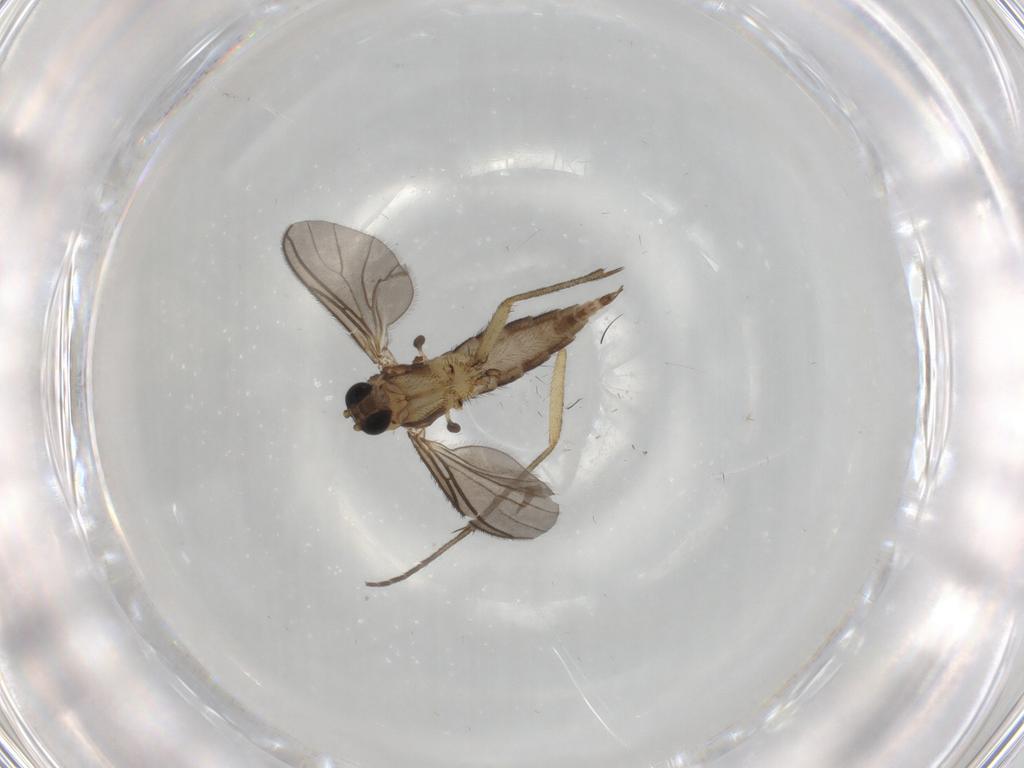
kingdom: Animalia
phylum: Arthropoda
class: Insecta
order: Diptera
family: Sciaridae
